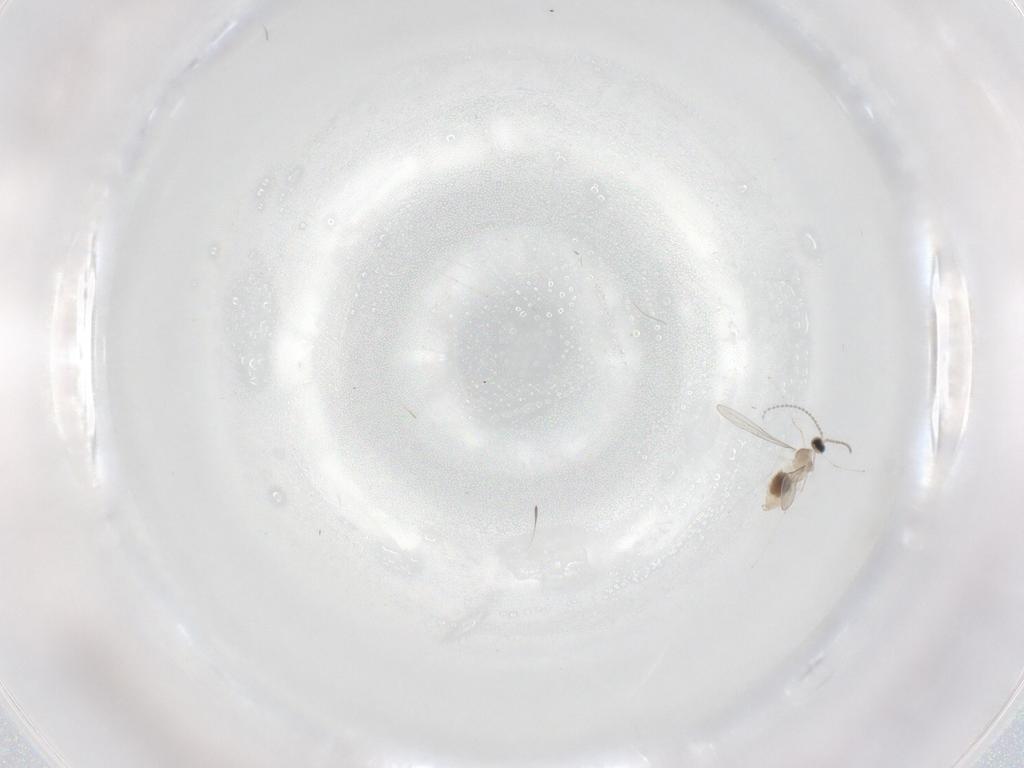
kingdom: Animalia
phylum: Arthropoda
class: Insecta
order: Diptera
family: Cecidomyiidae
